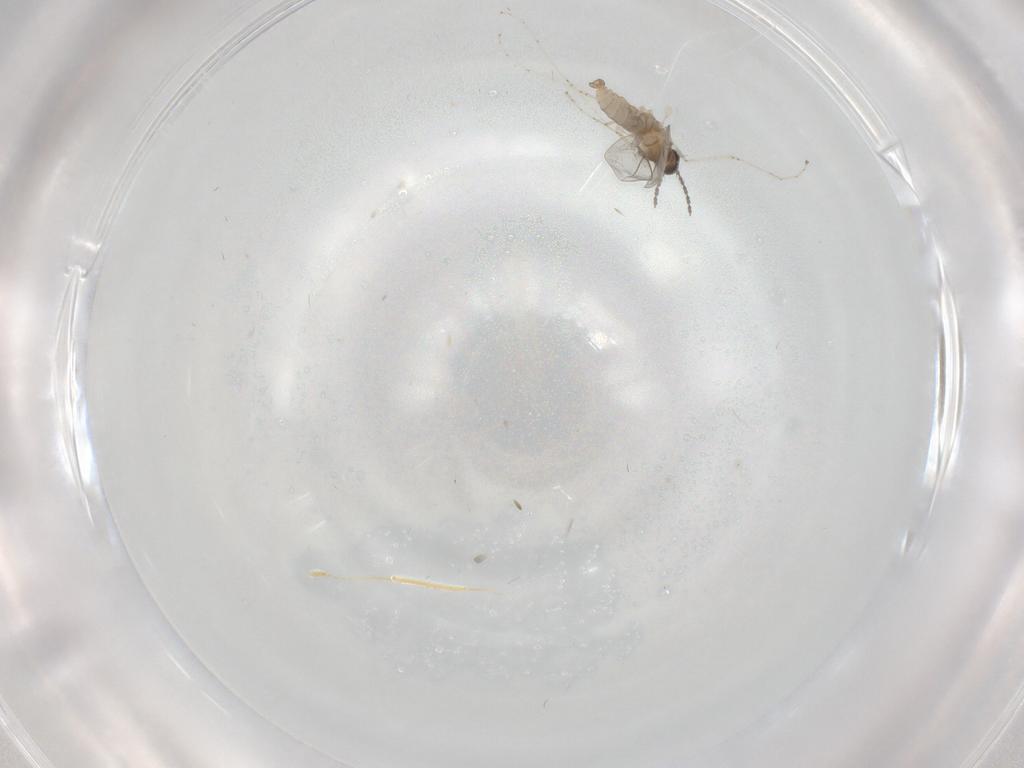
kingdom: Animalia
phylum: Arthropoda
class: Insecta
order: Diptera
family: Cecidomyiidae
